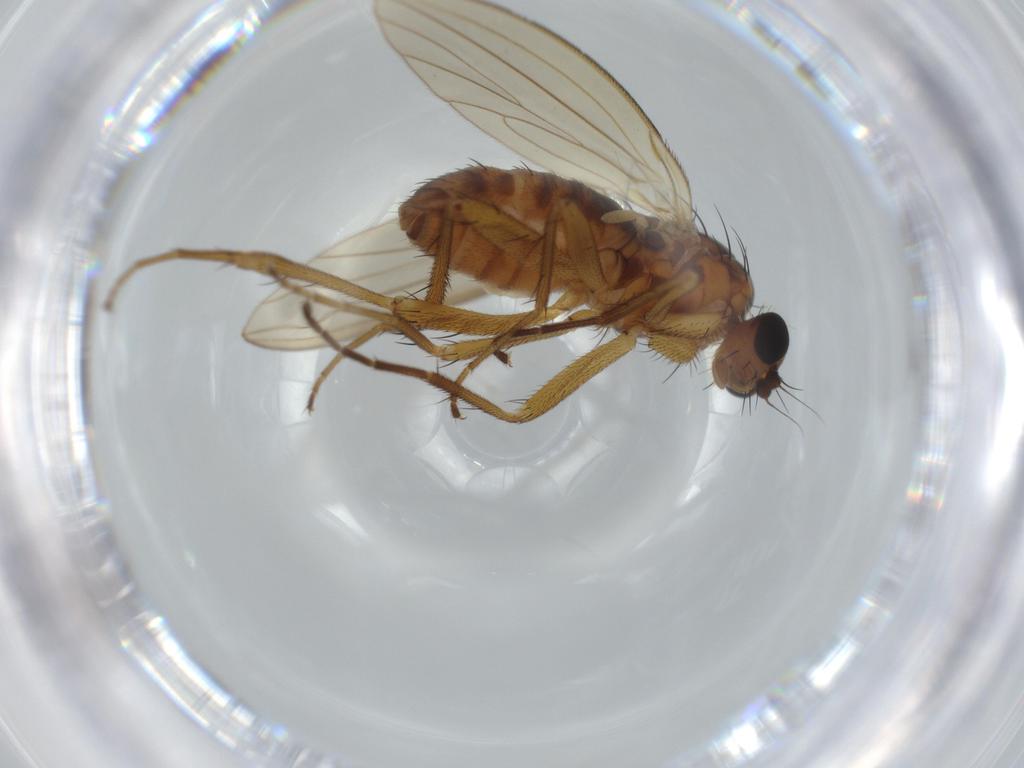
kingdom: Animalia
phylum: Arthropoda
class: Insecta
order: Diptera
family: Lonchopteridae
